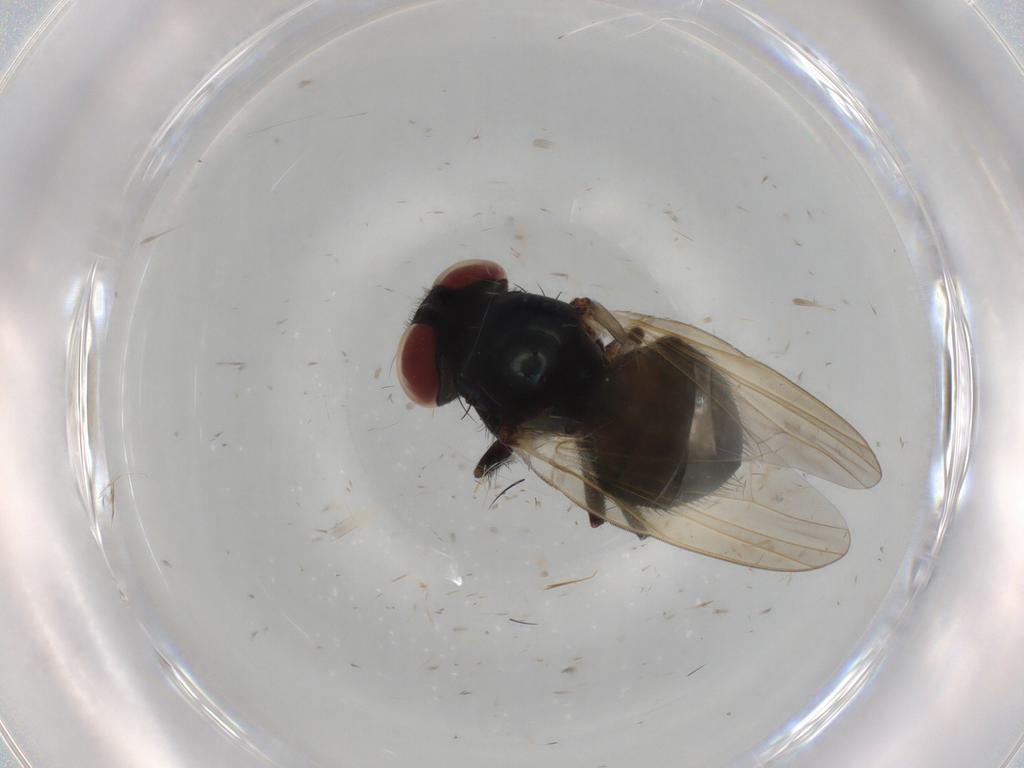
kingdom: Animalia
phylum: Arthropoda
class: Insecta
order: Diptera
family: Lonchaeidae
